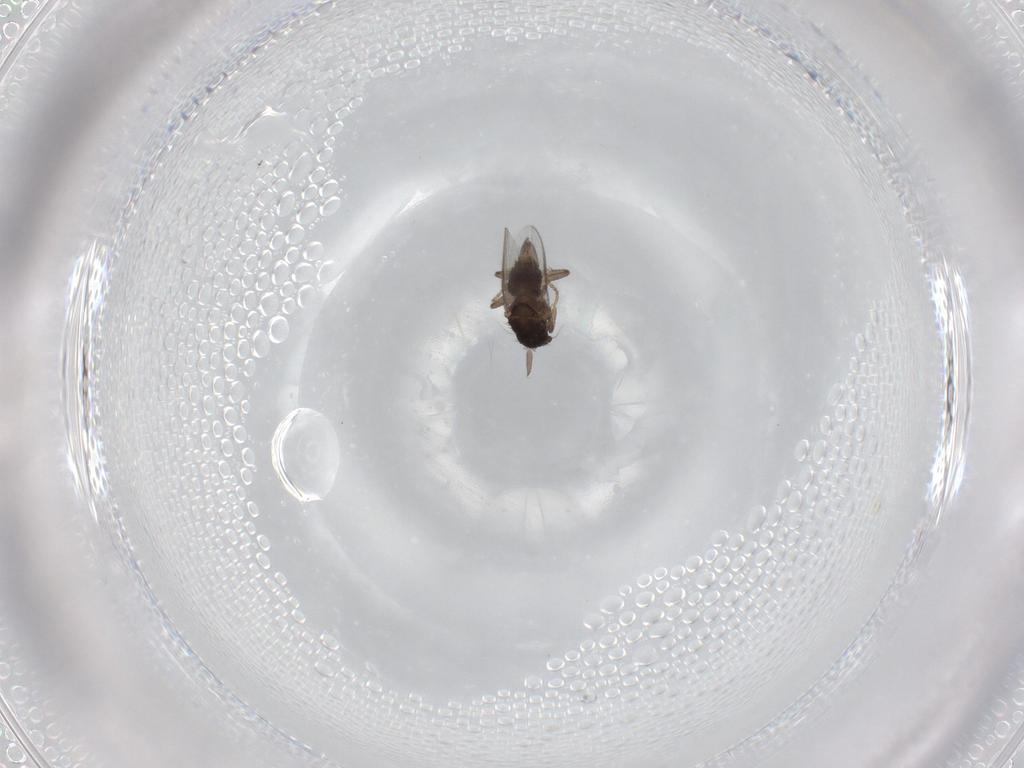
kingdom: Animalia
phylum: Arthropoda
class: Insecta
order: Diptera
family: Sphaeroceridae
